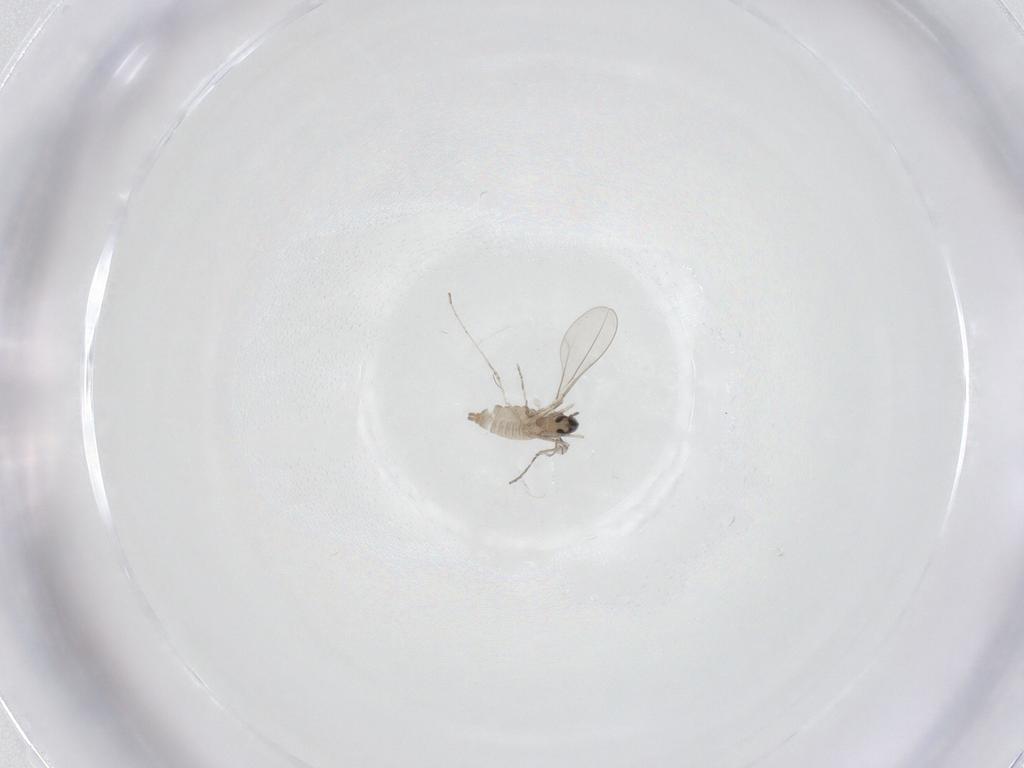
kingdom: Animalia
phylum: Arthropoda
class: Insecta
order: Diptera
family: Cecidomyiidae
